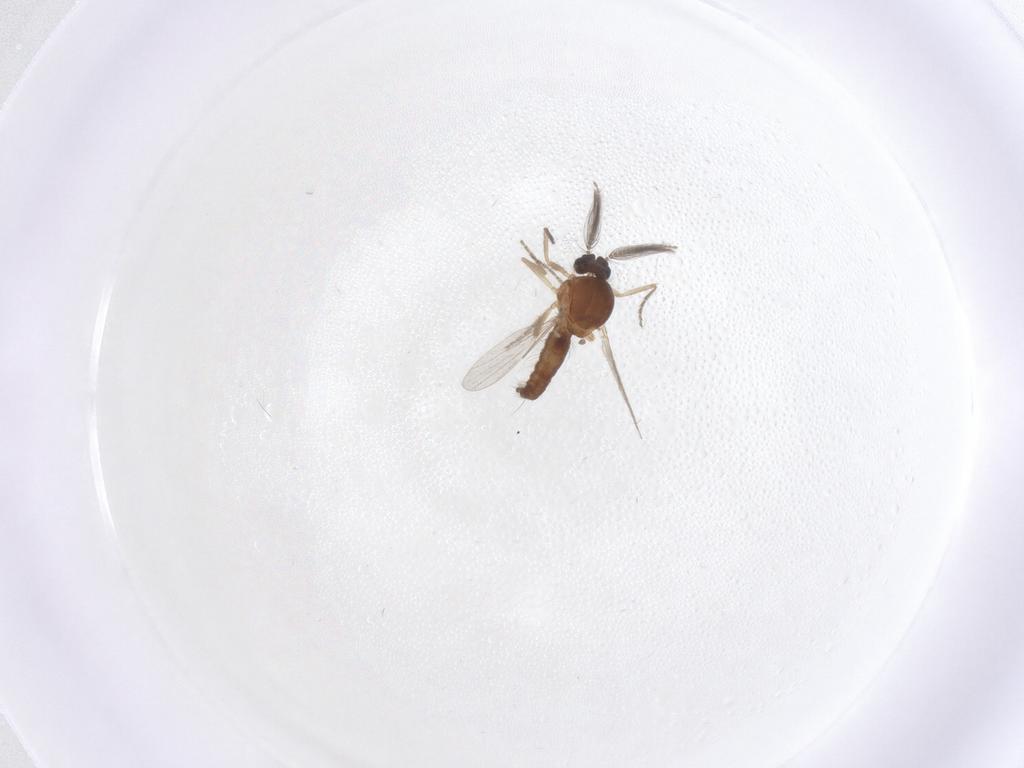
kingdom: Animalia
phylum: Arthropoda
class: Insecta
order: Diptera
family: Ceratopogonidae
